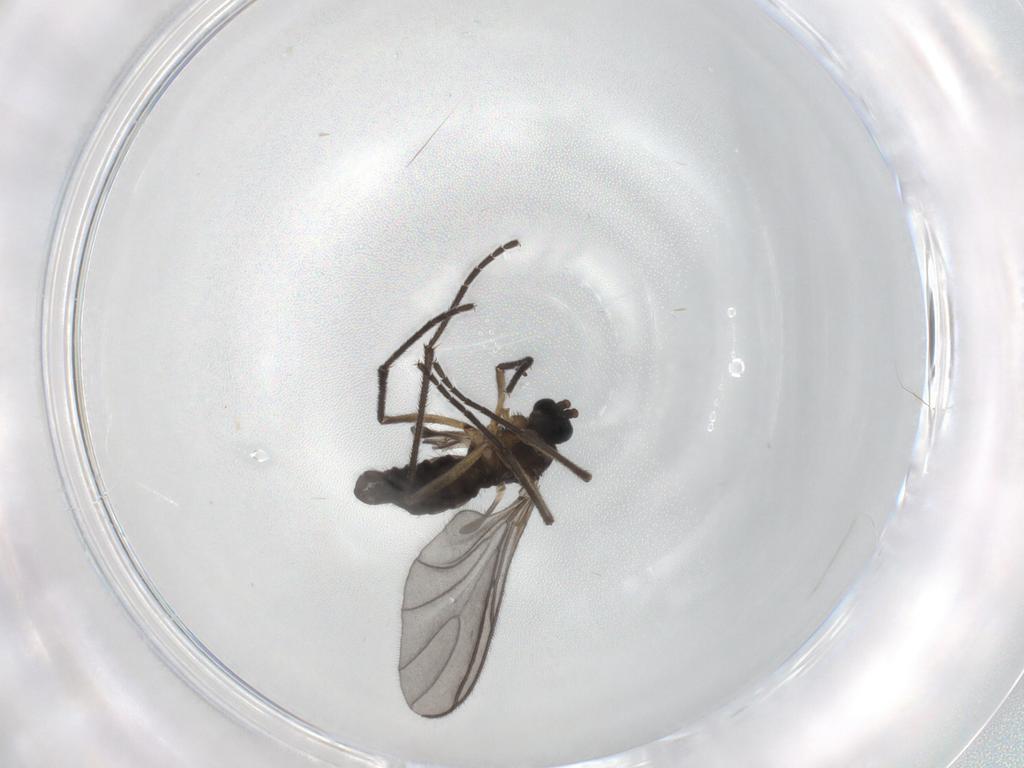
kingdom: Animalia
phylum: Arthropoda
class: Insecta
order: Diptera
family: Sciaridae
